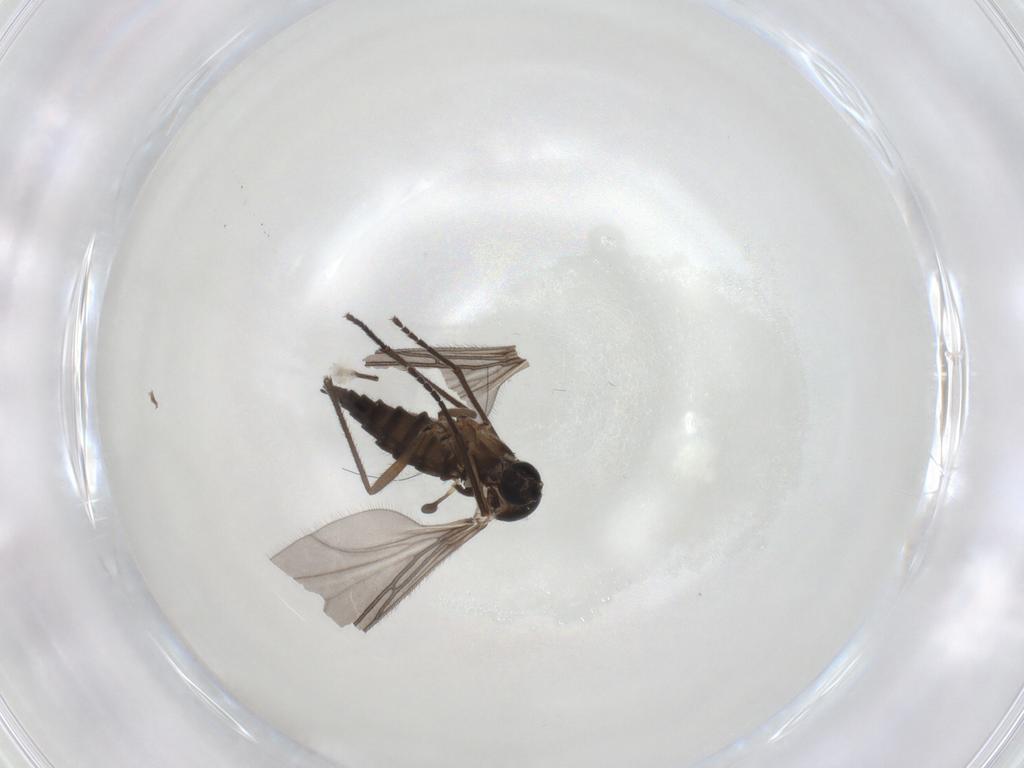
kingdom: Animalia
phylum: Arthropoda
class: Insecta
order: Diptera
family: Sciaridae
